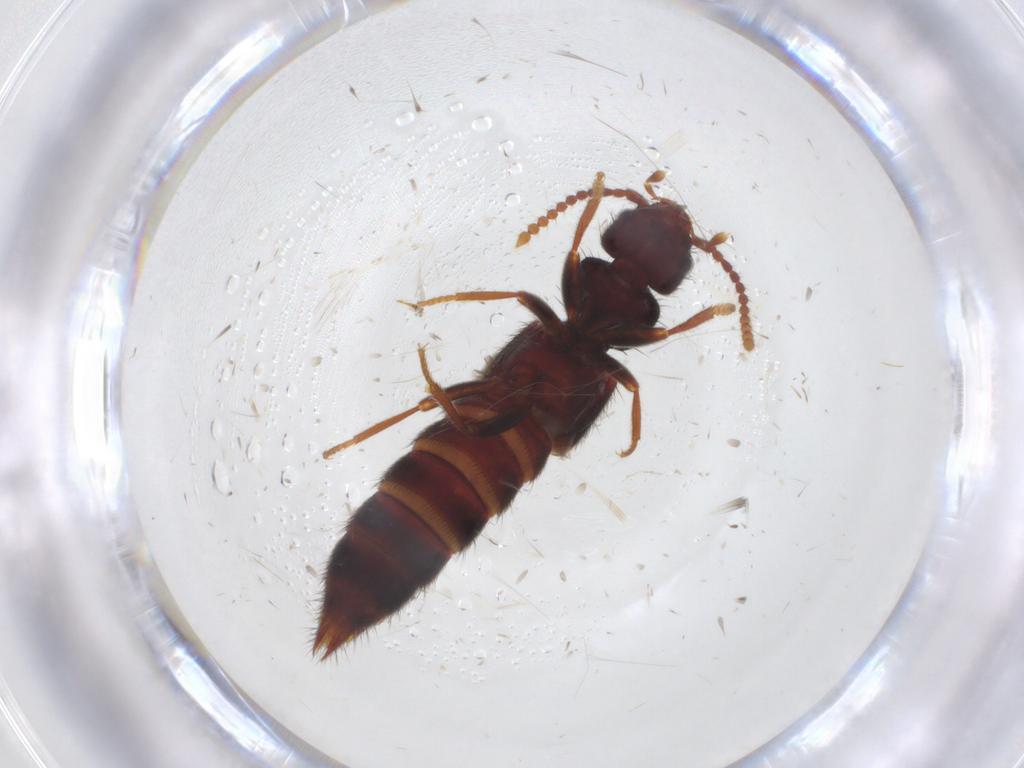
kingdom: Animalia
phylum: Arthropoda
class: Insecta
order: Coleoptera
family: Staphylinidae
